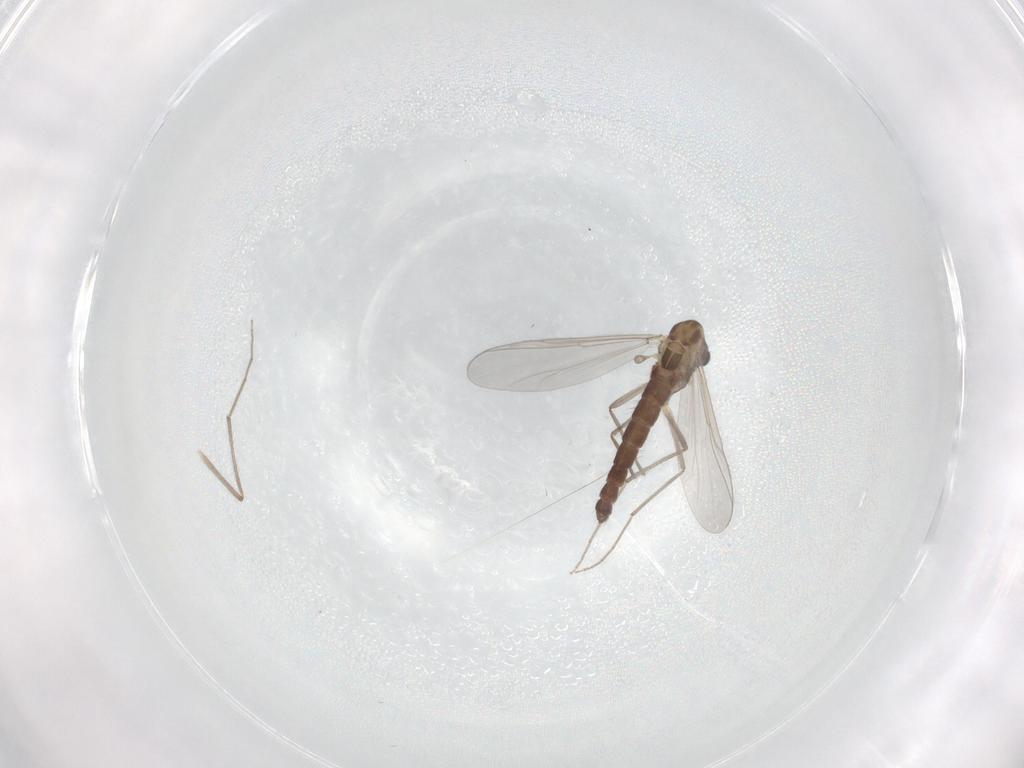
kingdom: Animalia
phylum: Arthropoda
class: Insecta
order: Diptera
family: Chironomidae
